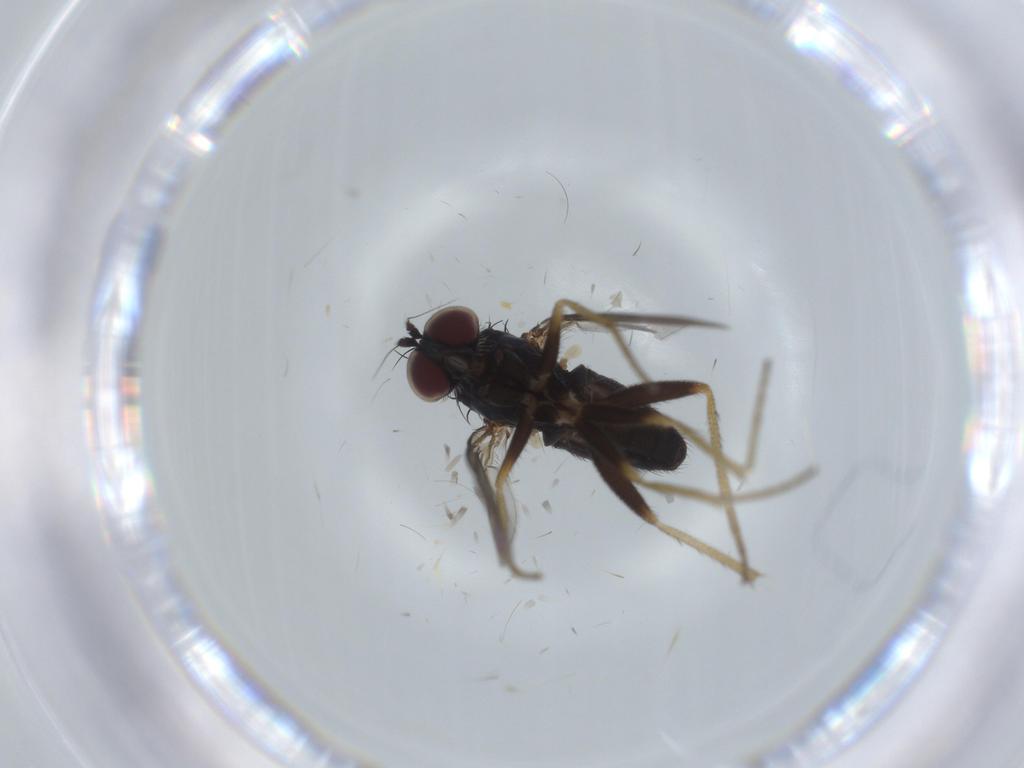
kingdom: Animalia
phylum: Arthropoda
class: Insecta
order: Diptera
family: Dolichopodidae
